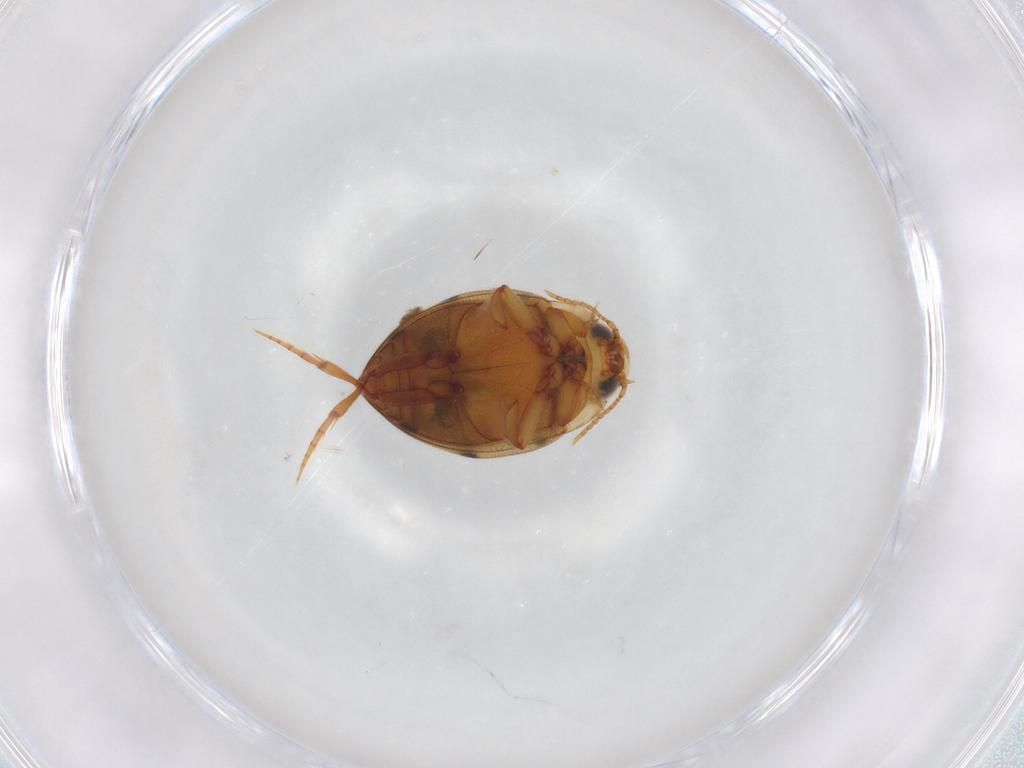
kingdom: Animalia
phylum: Arthropoda
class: Insecta
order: Coleoptera
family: Dytiscidae
